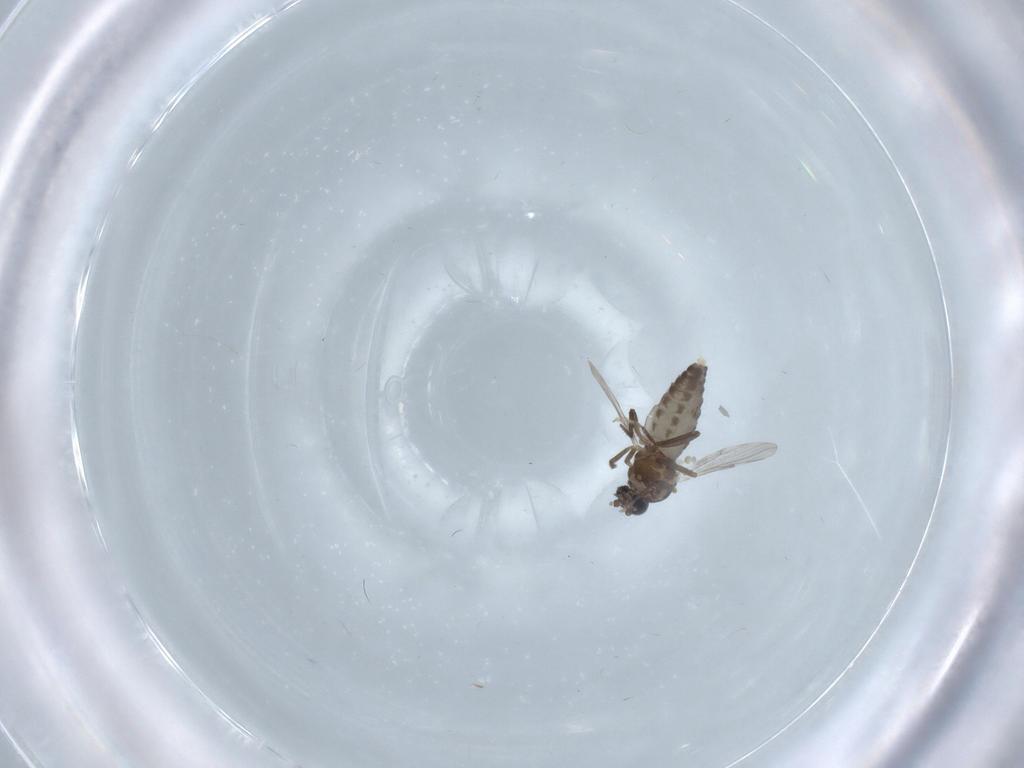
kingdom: Animalia
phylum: Arthropoda
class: Insecta
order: Diptera
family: Ceratopogonidae
